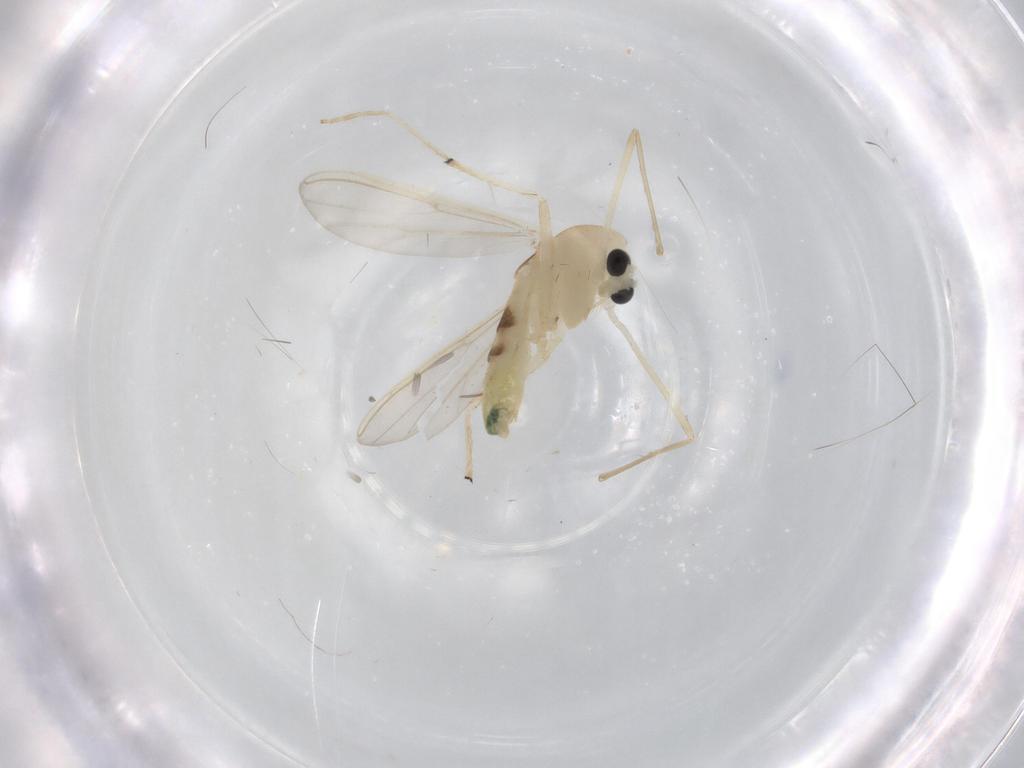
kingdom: Animalia
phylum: Arthropoda
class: Insecta
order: Diptera
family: Chironomidae
